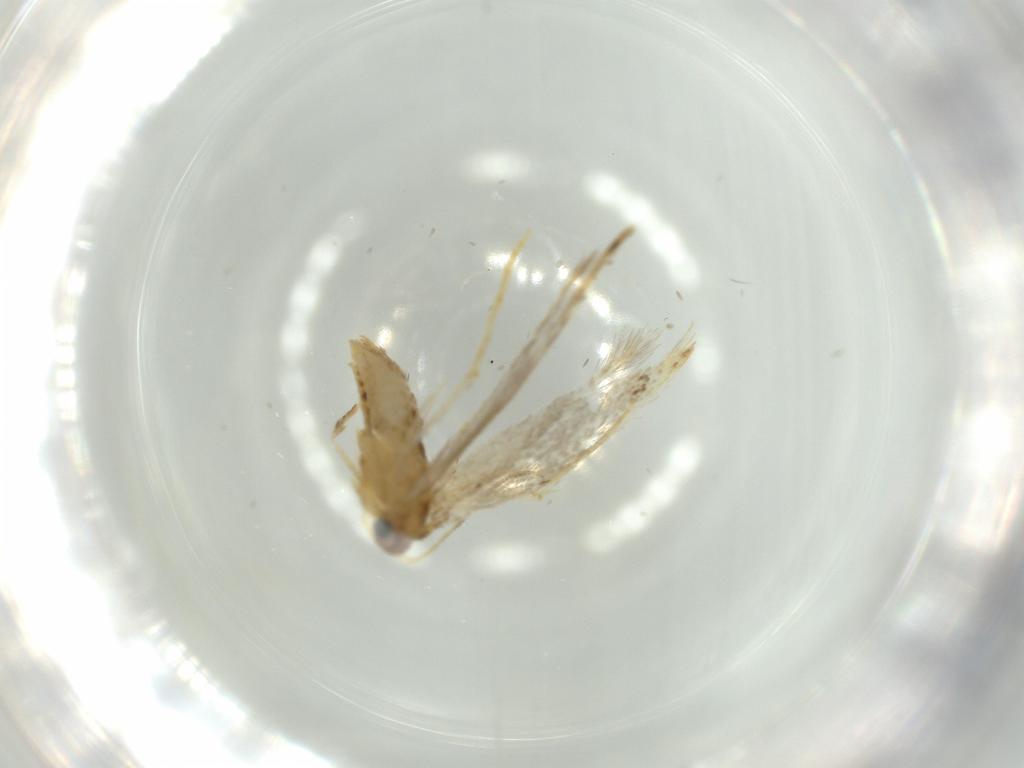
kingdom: Animalia
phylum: Arthropoda
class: Insecta
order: Lepidoptera
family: Tineidae
